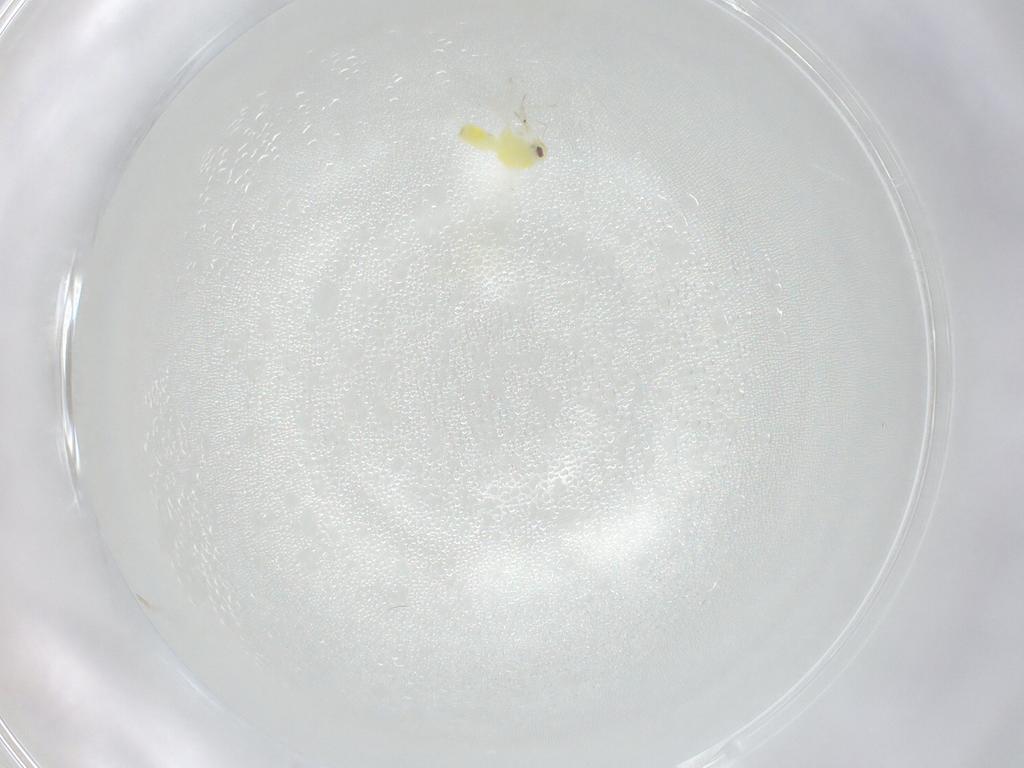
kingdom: Animalia
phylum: Arthropoda
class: Insecta
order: Hemiptera
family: Aleyrodidae
